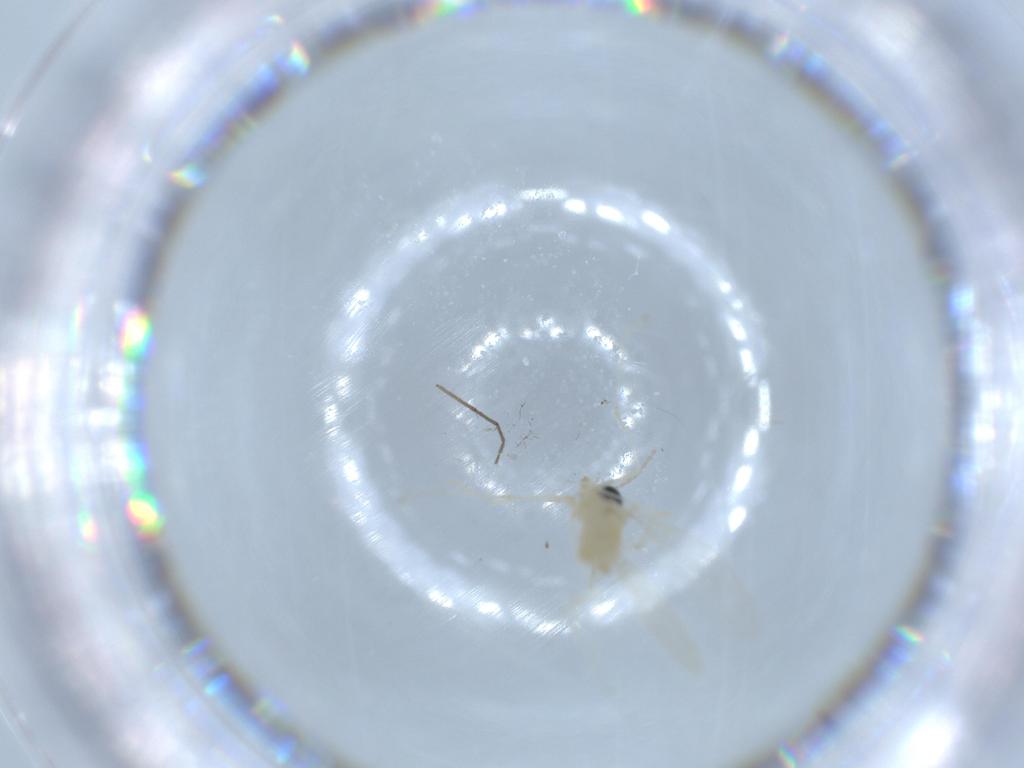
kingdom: Animalia
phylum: Arthropoda
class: Insecta
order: Diptera
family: Cecidomyiidae
